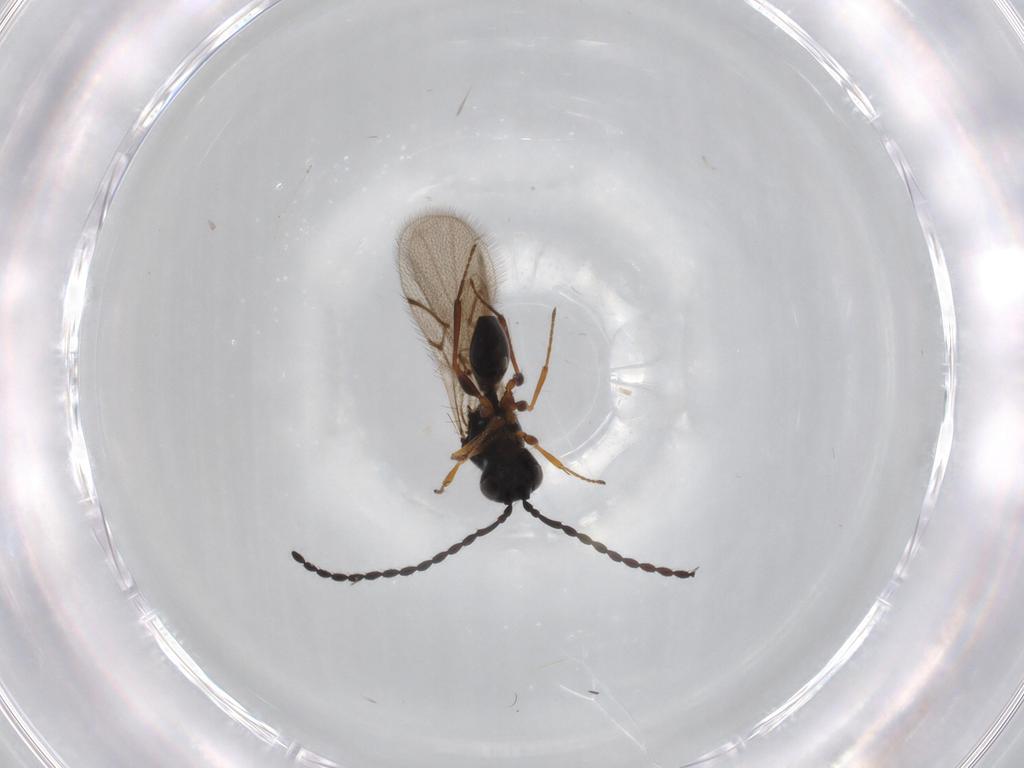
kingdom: Animalia
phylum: Arthropoda
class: Insecta
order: Hymenoptera
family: Figitidae
